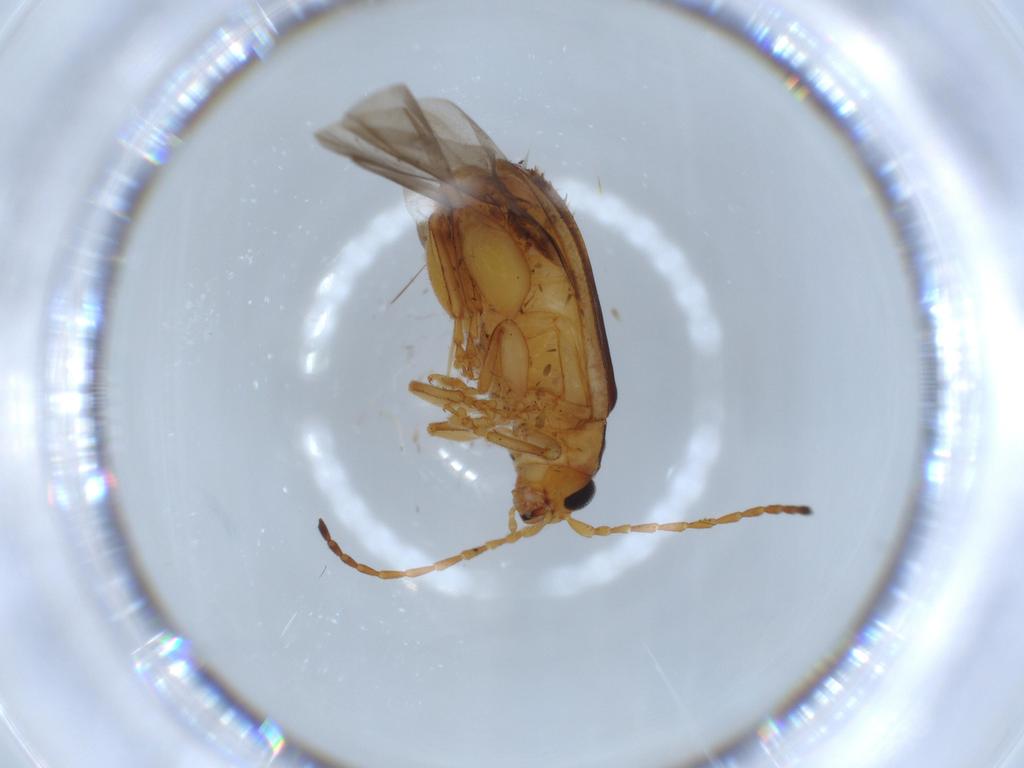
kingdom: Animalia
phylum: Arthropoda
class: Insecta
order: Coleoptera
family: Chrysomelidae
